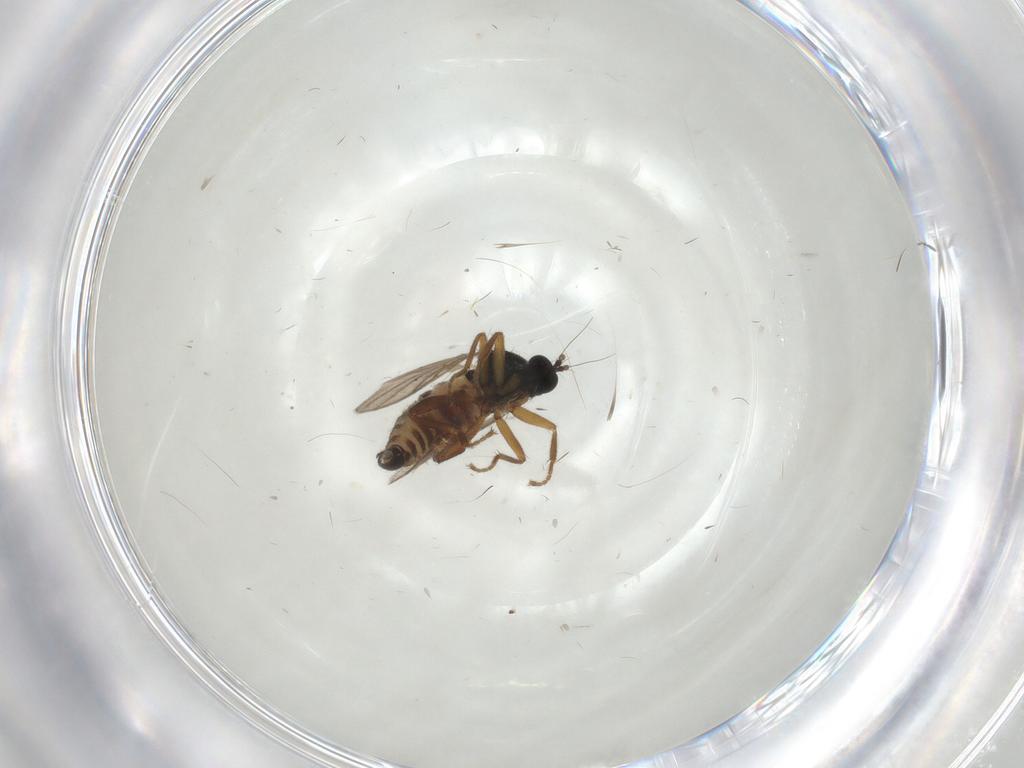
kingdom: Animalia
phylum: Arthropoda
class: Insecta
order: Diptera
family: Hybotidae
